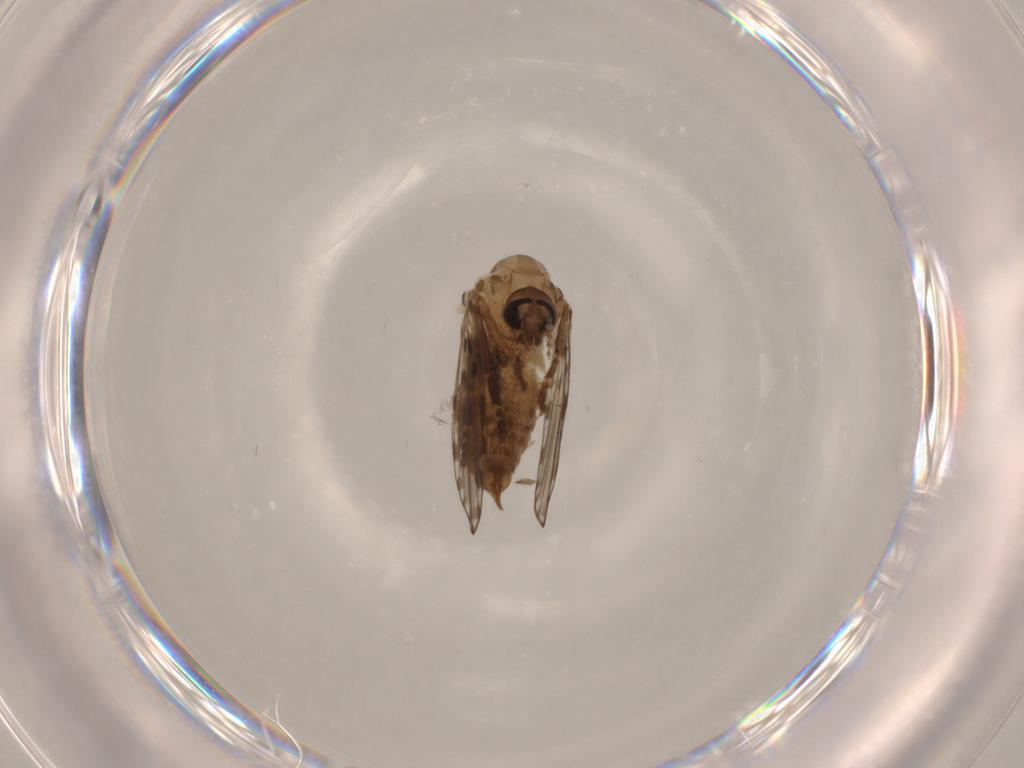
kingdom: Animalia
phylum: Arthropoda
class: Insecta
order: Diptera
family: Psychodidae
